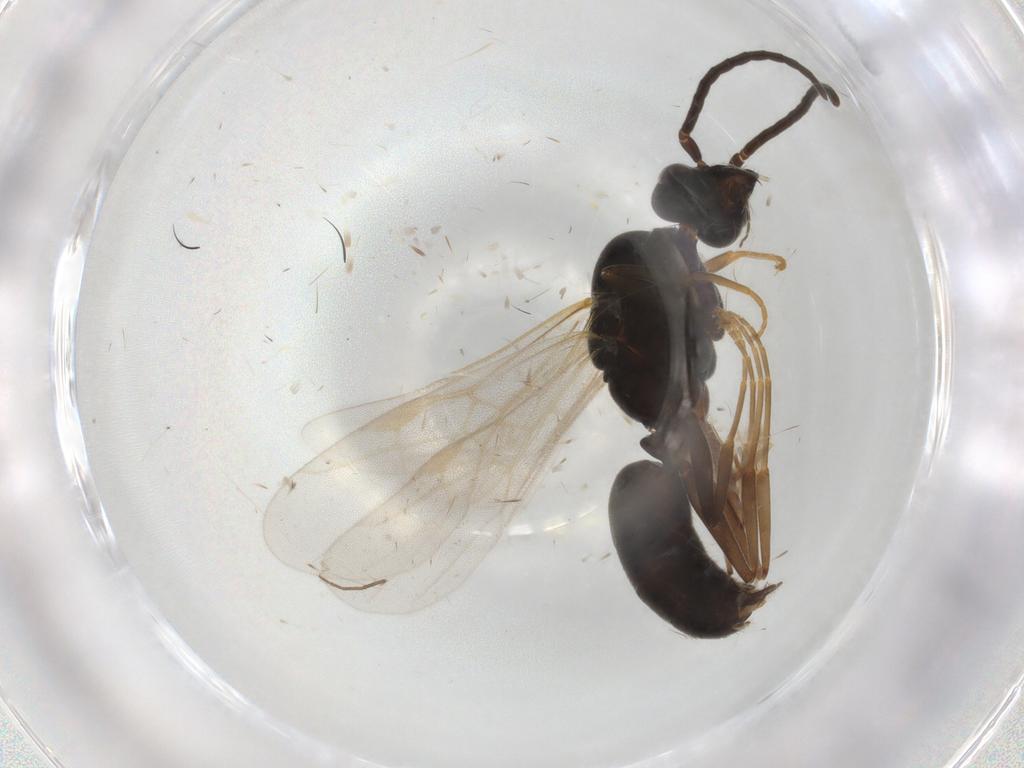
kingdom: Animalia
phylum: Arthropoda
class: Insecta
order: Hymenoptera
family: Formicidae
